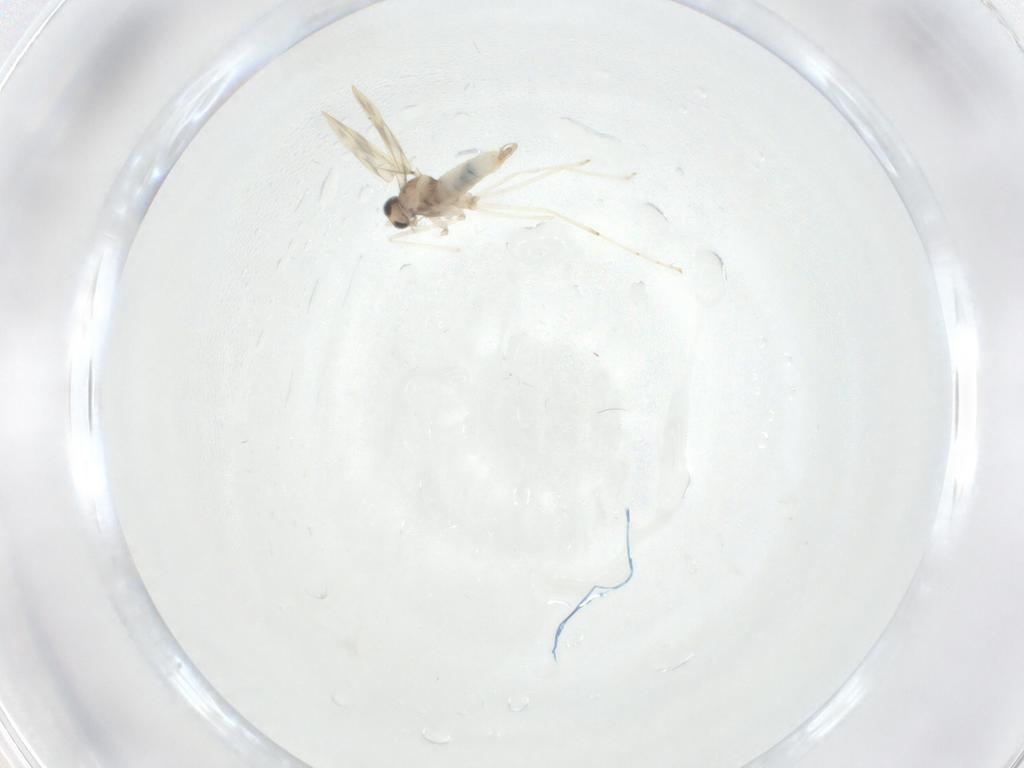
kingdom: Animalia
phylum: Arthropoda
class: Insecta
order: Diptera
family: Cecidomyiidae
